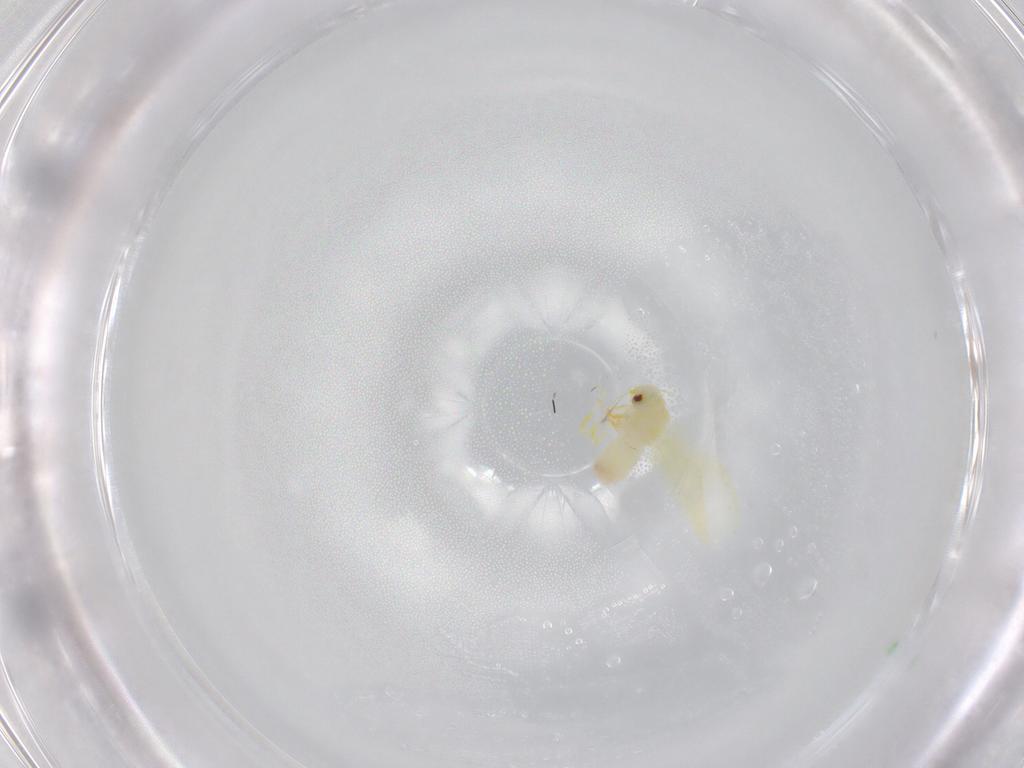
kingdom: Animalia
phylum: Arthropoda
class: Insecta
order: Hemiptera
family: Aleyrodidae
